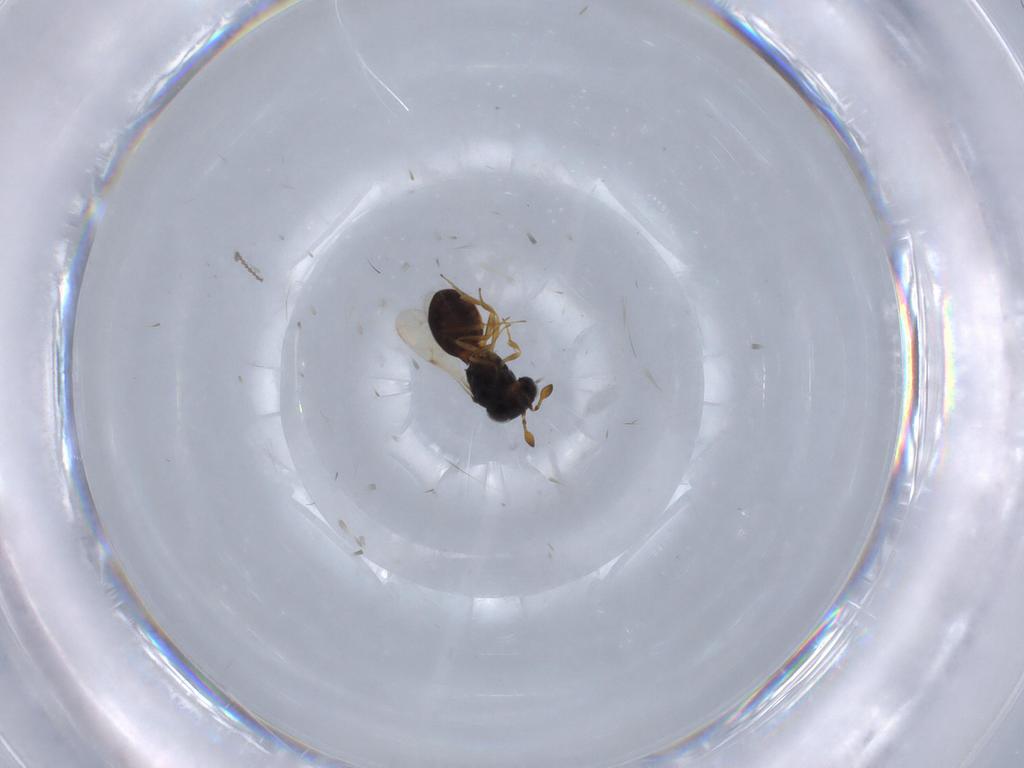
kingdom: Animalia
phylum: Arthropoda
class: Insecta
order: Hymenoptera
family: Scelionidae
